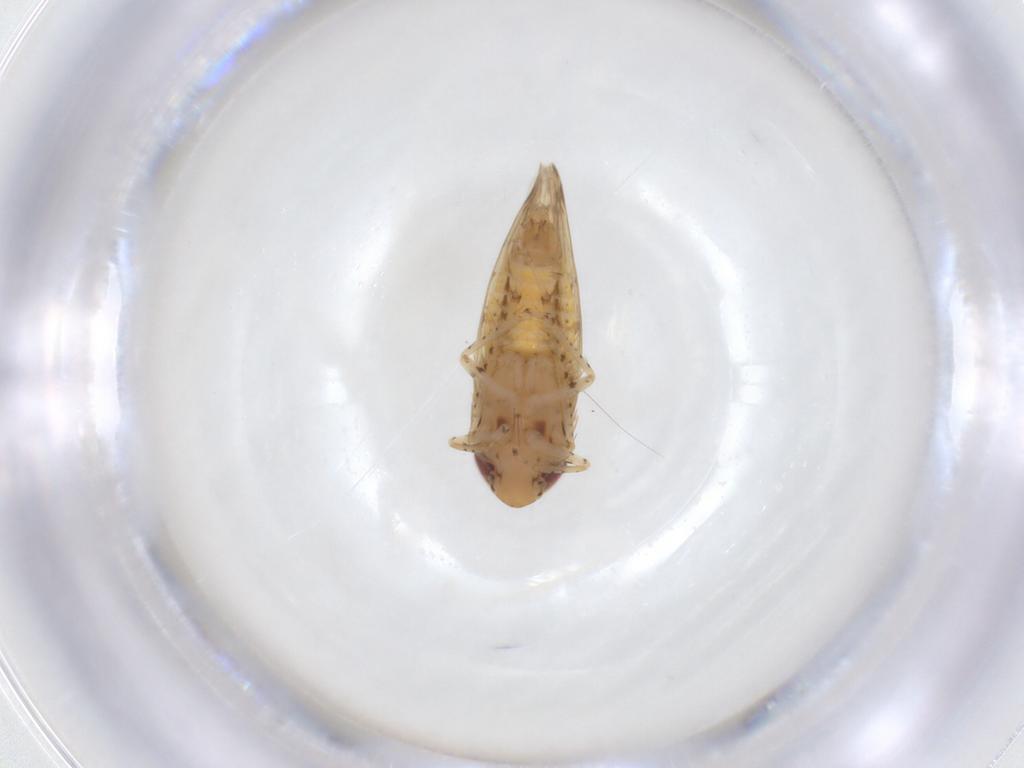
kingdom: Animalia
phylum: Arthropoda
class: Insecta
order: Hemiptera
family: Cicadellidae
